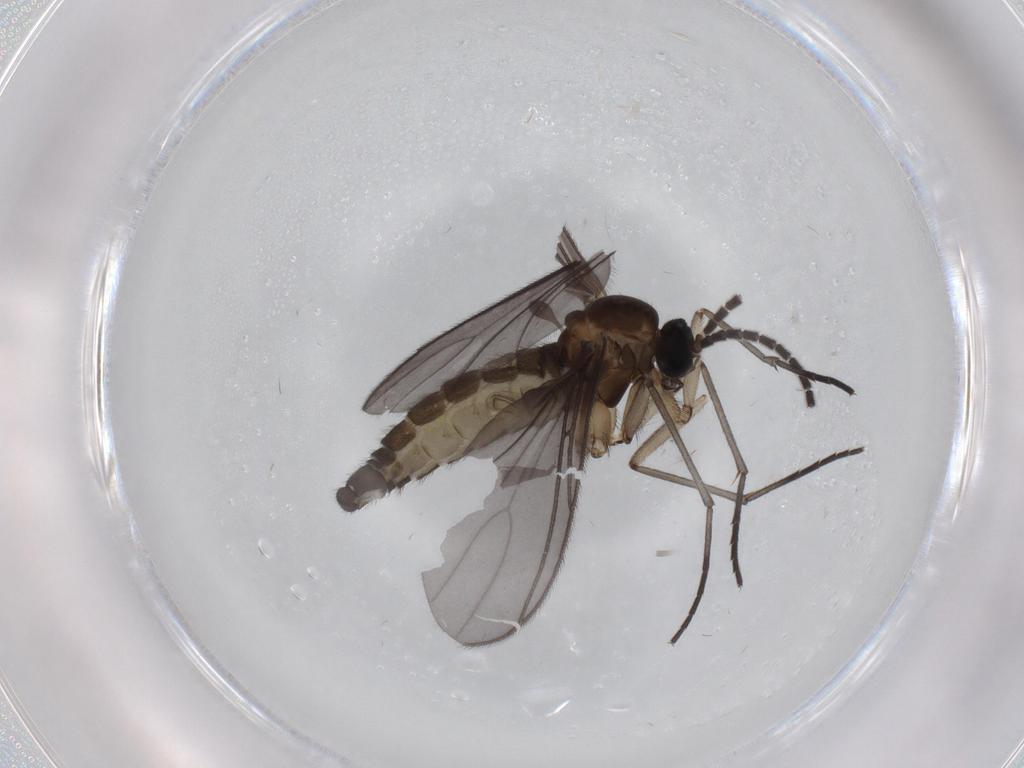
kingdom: Animalia
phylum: Arthropoda
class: Insecta
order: Diptera
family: Sciaridae
